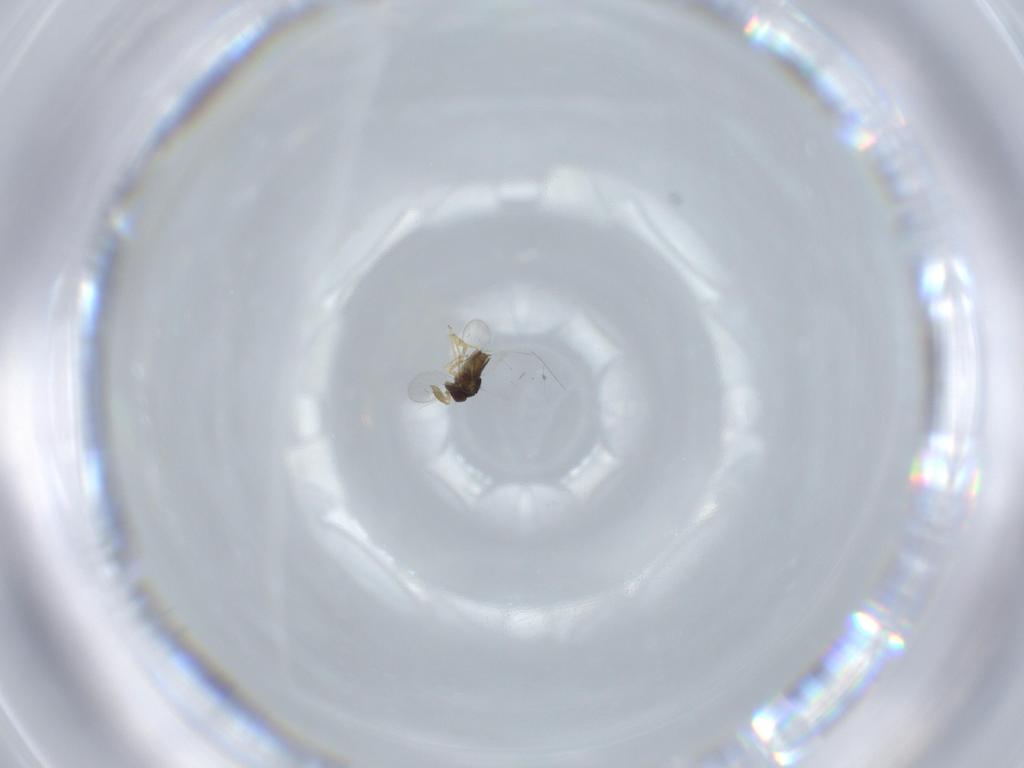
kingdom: Animalia
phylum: Arthropoda
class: Insecta
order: Hymenoptera
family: Encyrtidae
